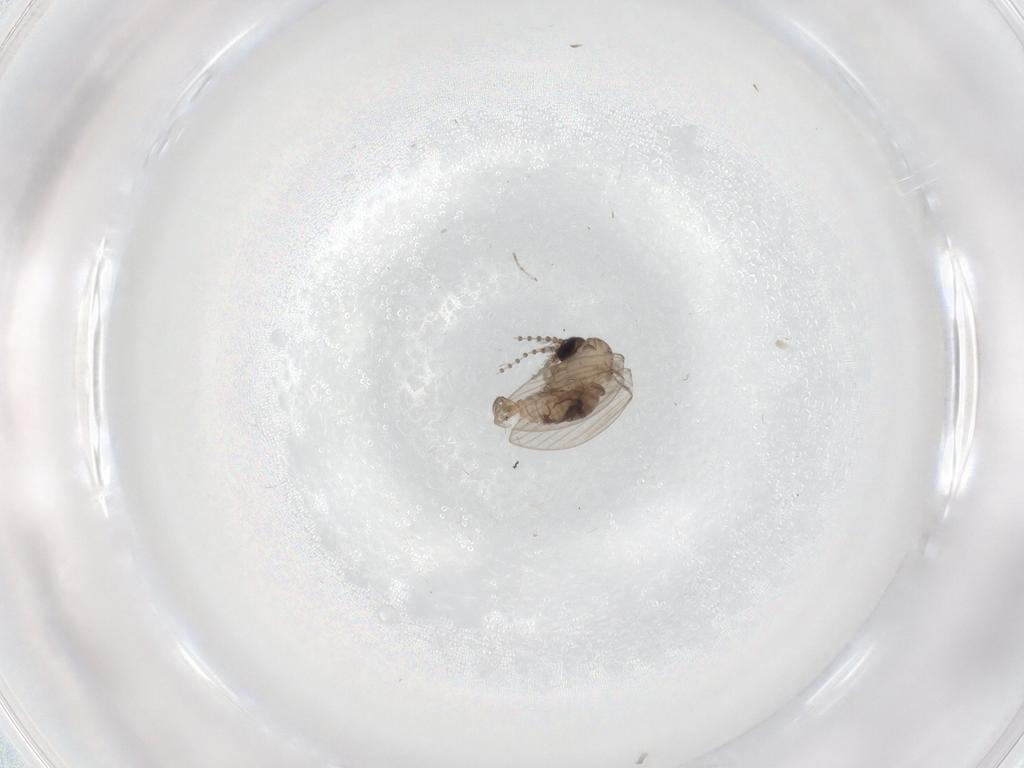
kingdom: Animalia
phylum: Arthropoda
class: Insecta
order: Diptera
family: Psychodidae
